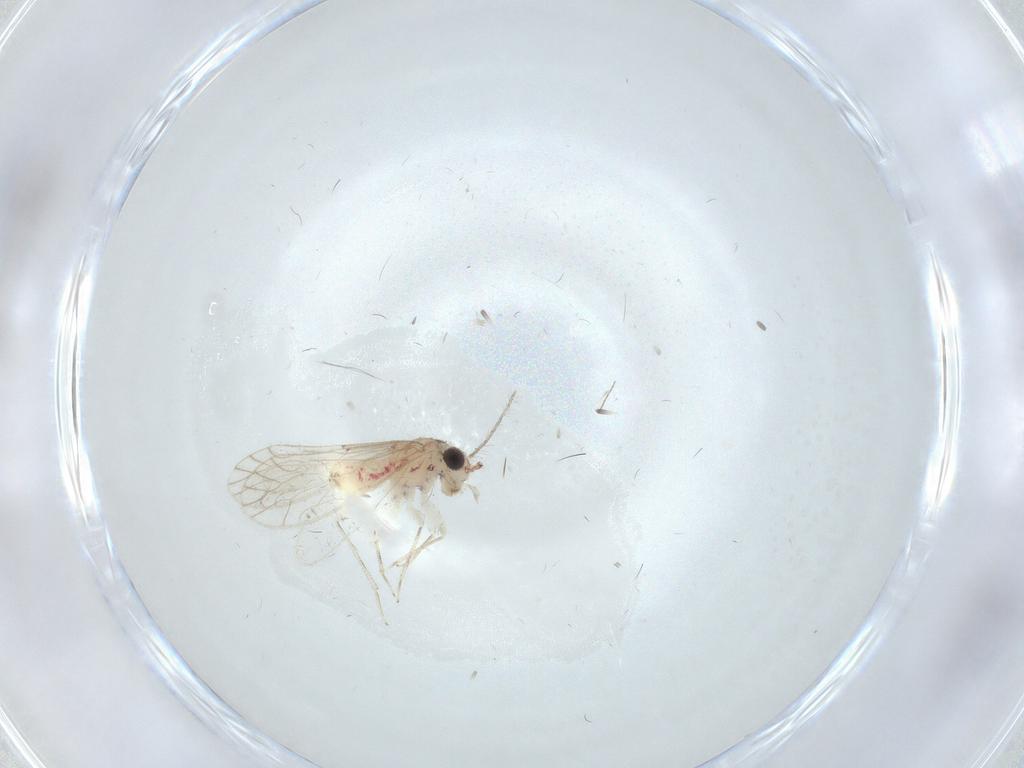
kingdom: Animalia
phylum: Arthropoda
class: Insecta
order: Psocodea
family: Caeciliusidae
